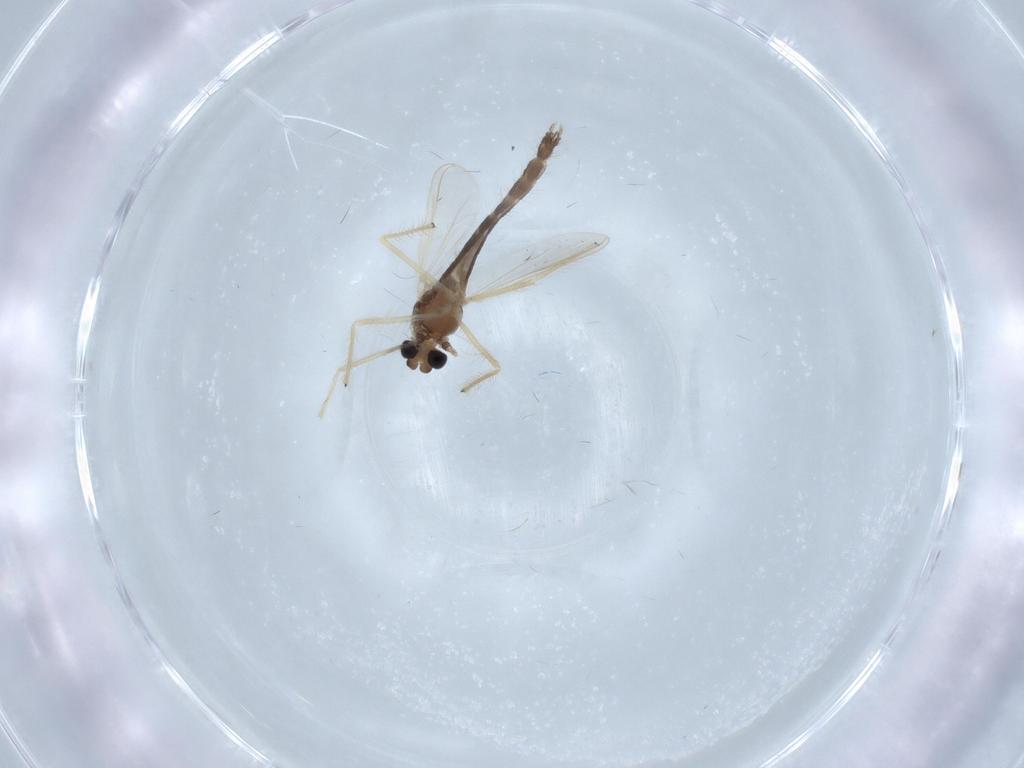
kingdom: Animalia
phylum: Arthropoda
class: Insecta
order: Diptera
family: Chironomidae
